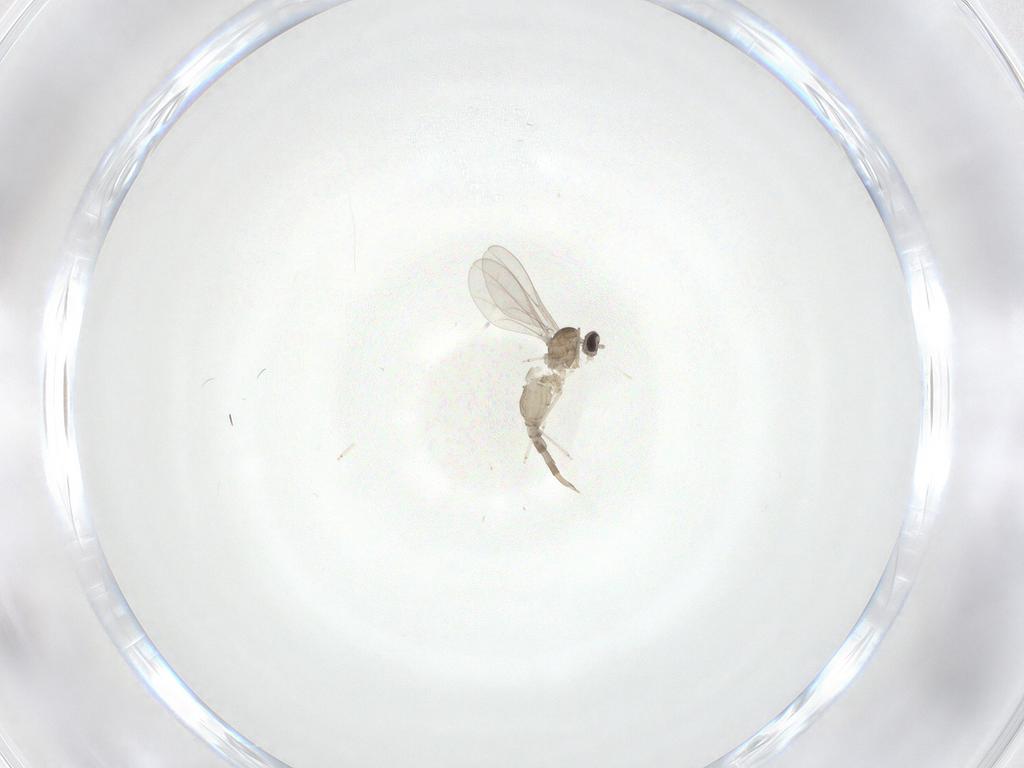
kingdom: Animalia
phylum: Arthropoda
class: Insecta
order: Diptera
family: Cecidomyiidae
